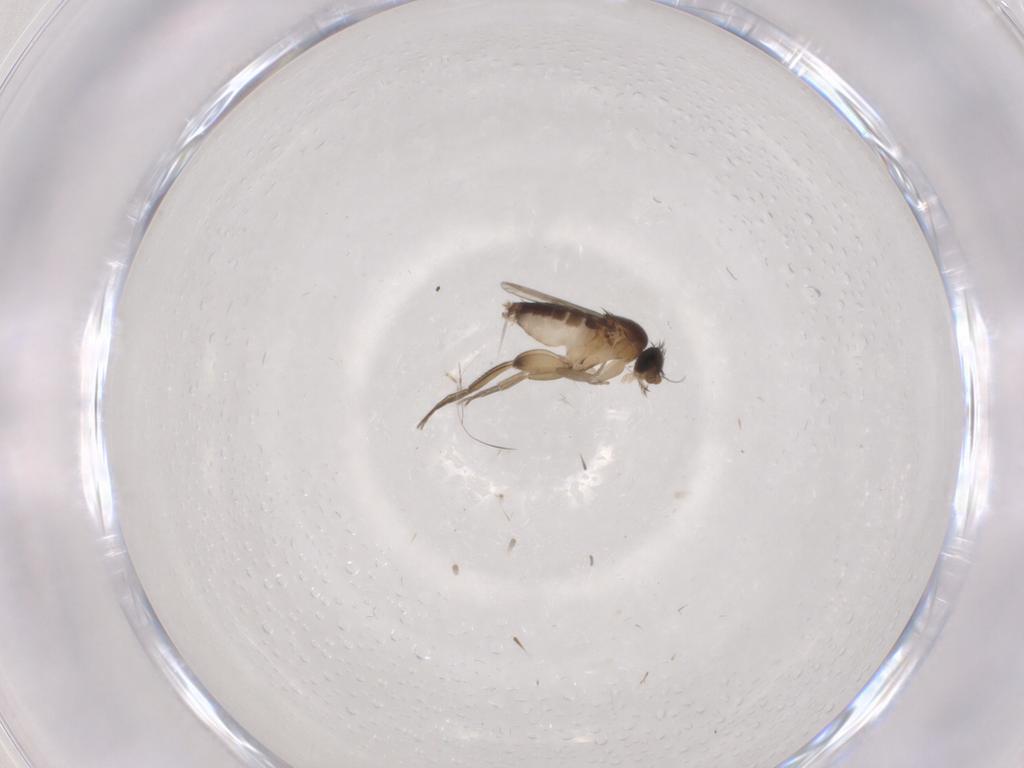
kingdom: Animalia
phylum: Arthropoda
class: Insecta
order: Diptera
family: Phoridae
